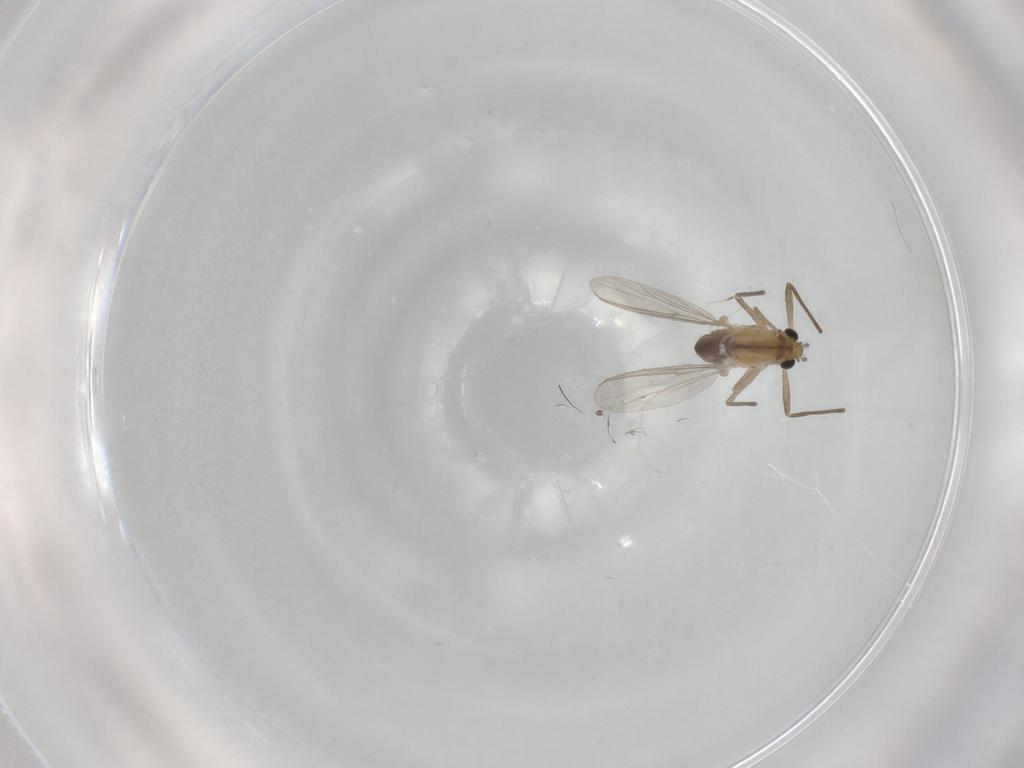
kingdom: Animalia
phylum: Arthropoda
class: Insecta
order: Diptera
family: Chironomidae
